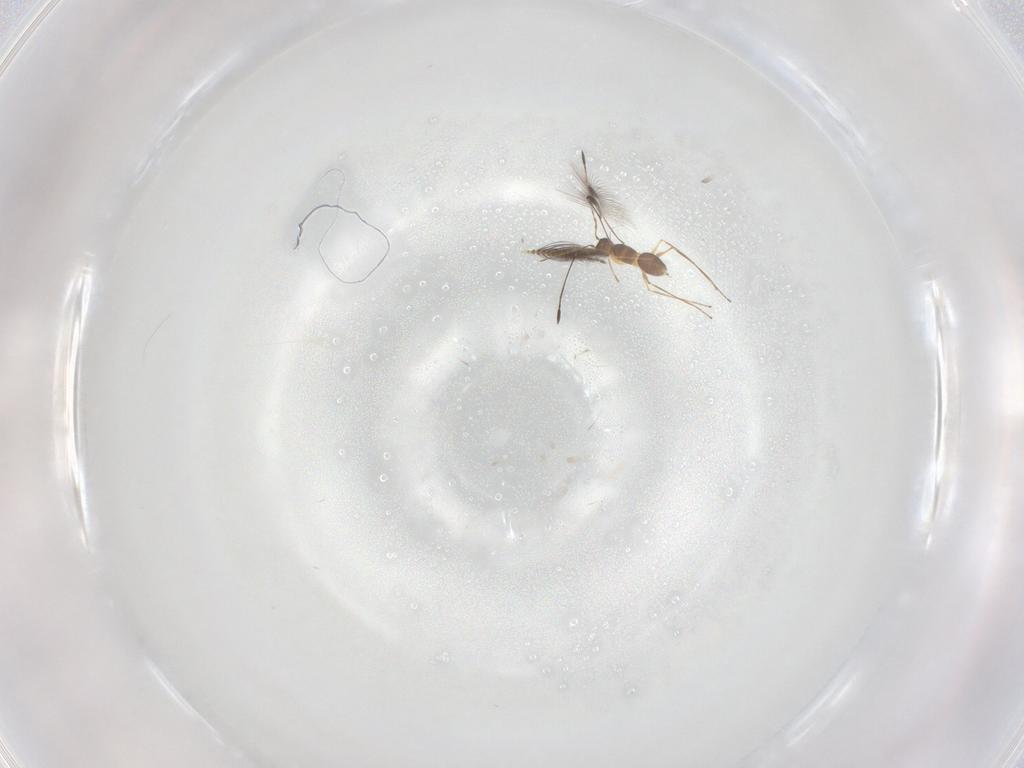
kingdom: Animalia
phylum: Arthropoda
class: Insecta
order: Hymenoptera
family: Mymaridae
